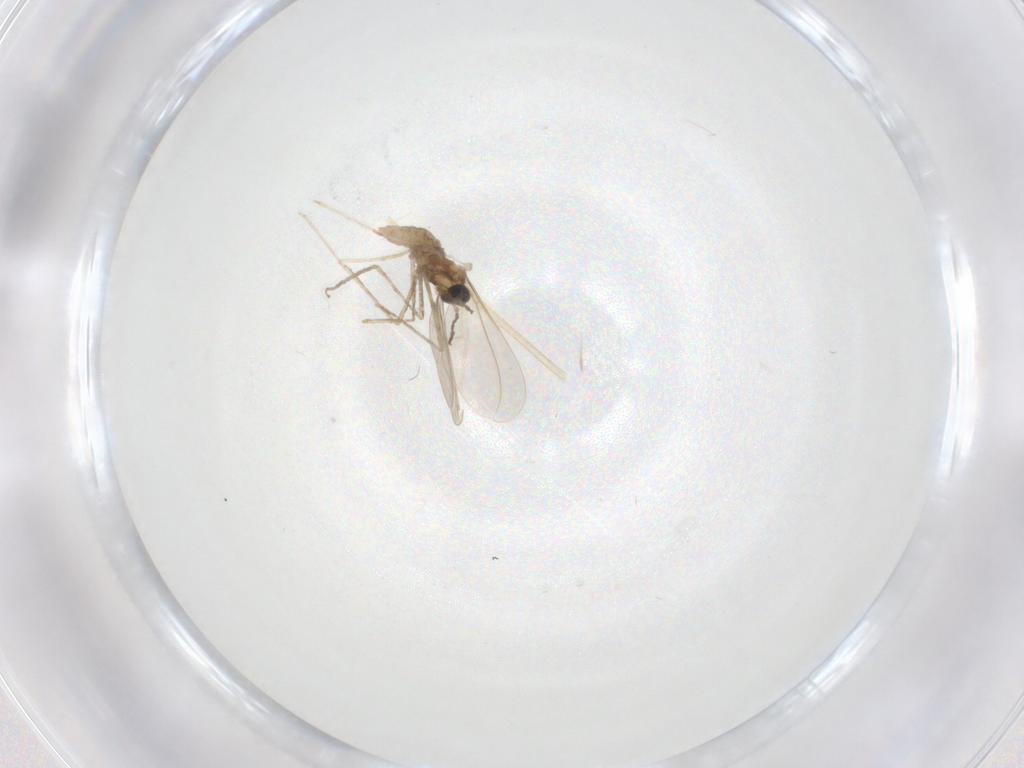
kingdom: Animalia
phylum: Arthropoda
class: Insecta
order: Diptera
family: Cecidomyiidae
